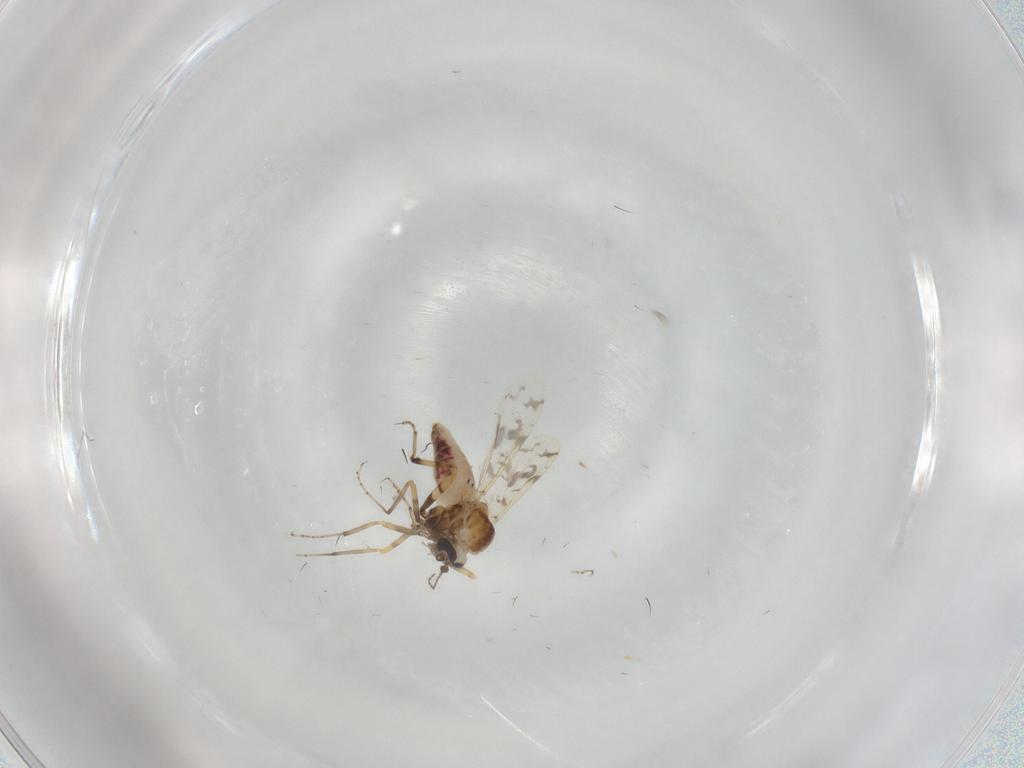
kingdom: Animalia
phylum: Arthropoda
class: Insecta
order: Diptera
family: Ceratopogonidae
